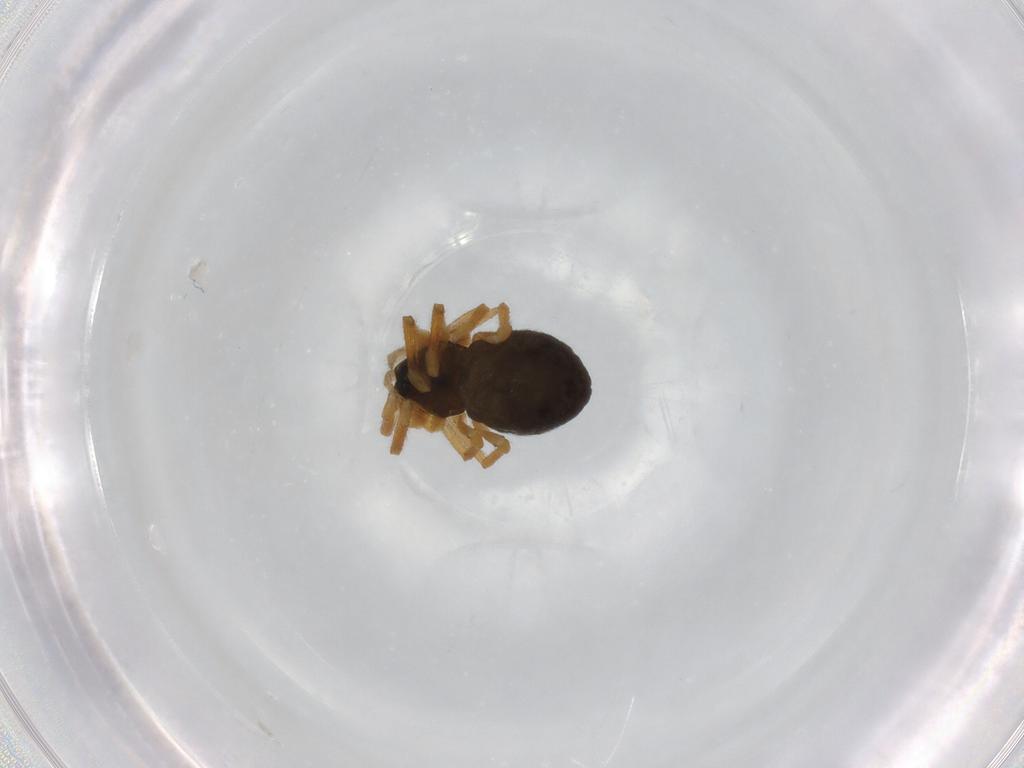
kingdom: Animalia
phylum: Arthropoda
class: Arachnida
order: Araneae
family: Linyphiidae
